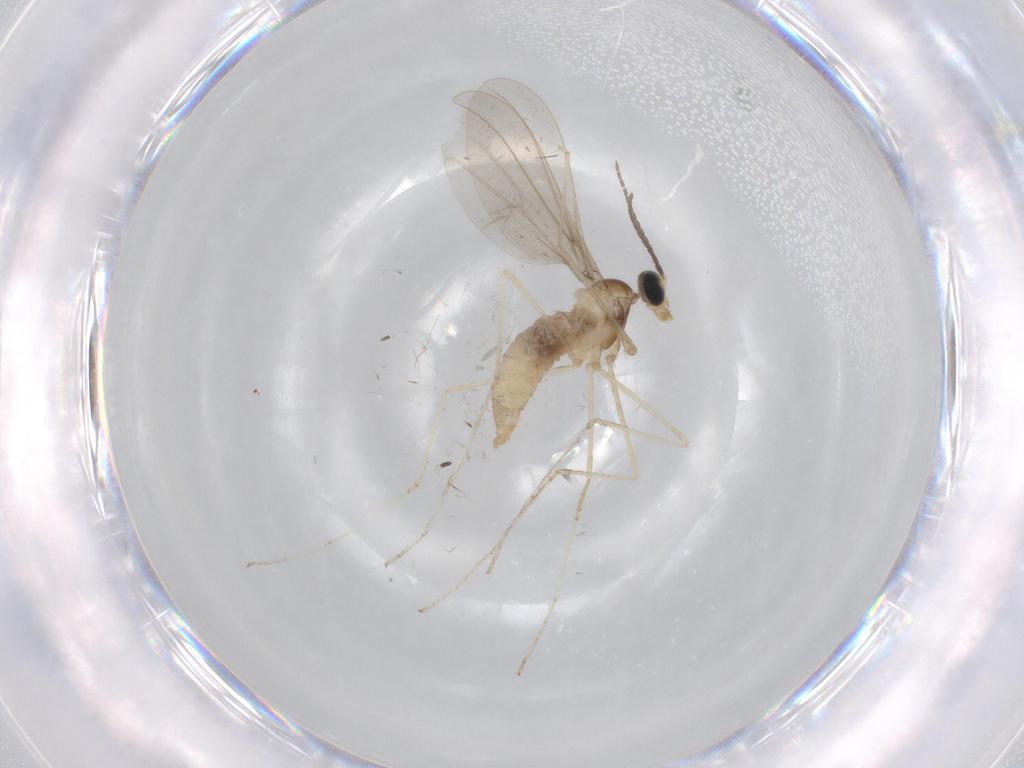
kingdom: Animalia
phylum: Arthropoda
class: Insecta
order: Diptera
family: Cecidomyiidae
